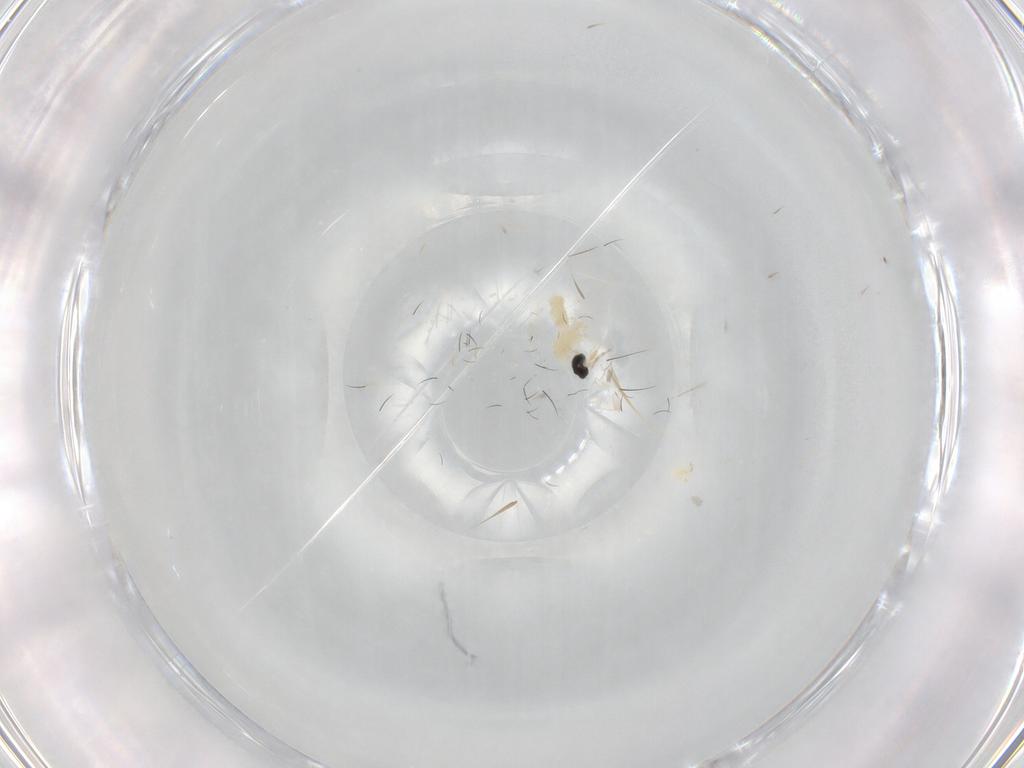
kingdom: Animalia
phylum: Arthropoda
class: Insecta
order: Diptera
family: Cecidomyiidae
